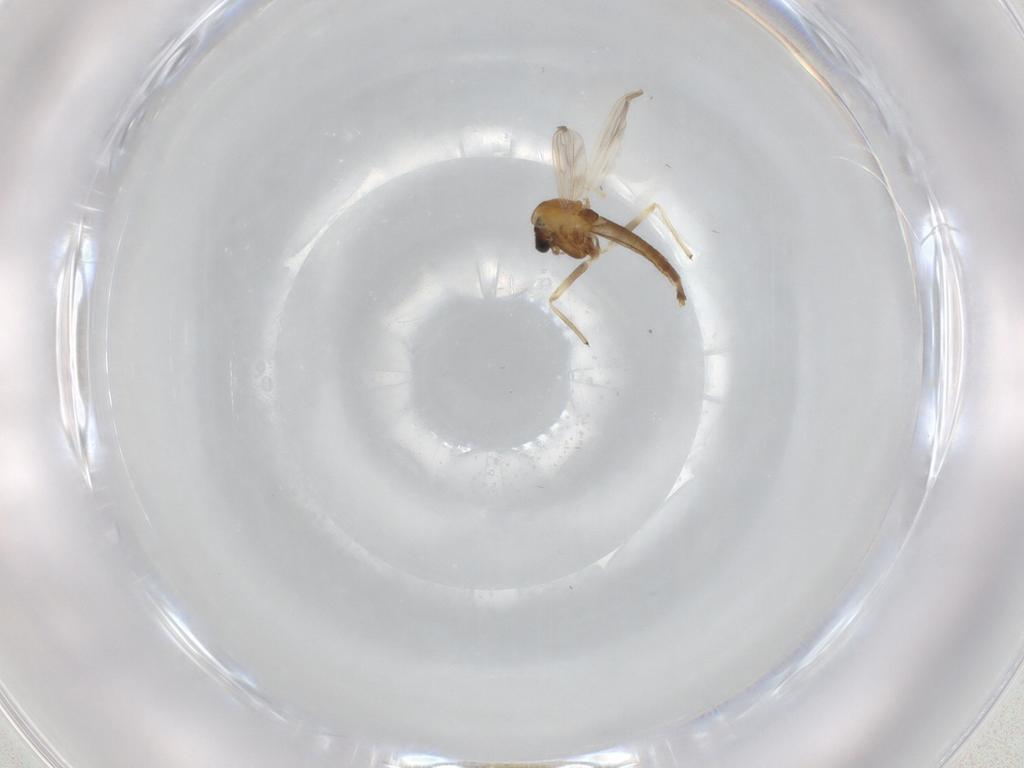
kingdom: Animalia
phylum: Arthropoda
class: Insecta
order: Diptera
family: Chironomidae
